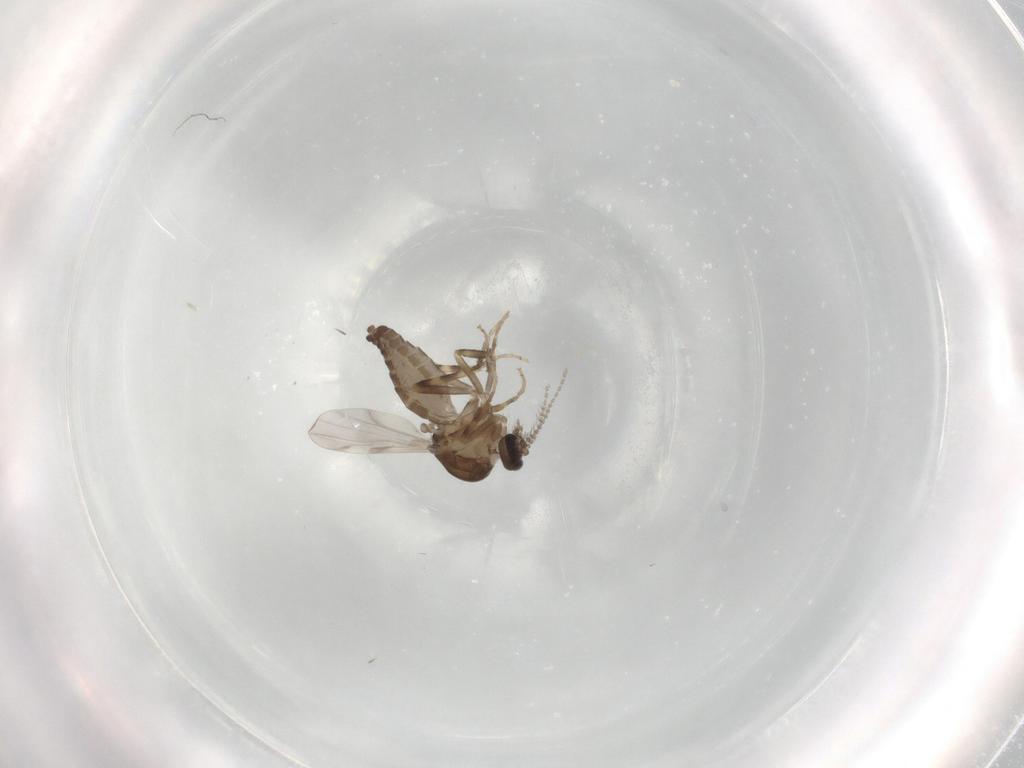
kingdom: Animalia
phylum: Arthropoda
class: Insecta
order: Diptera
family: Ceratopogonidae
